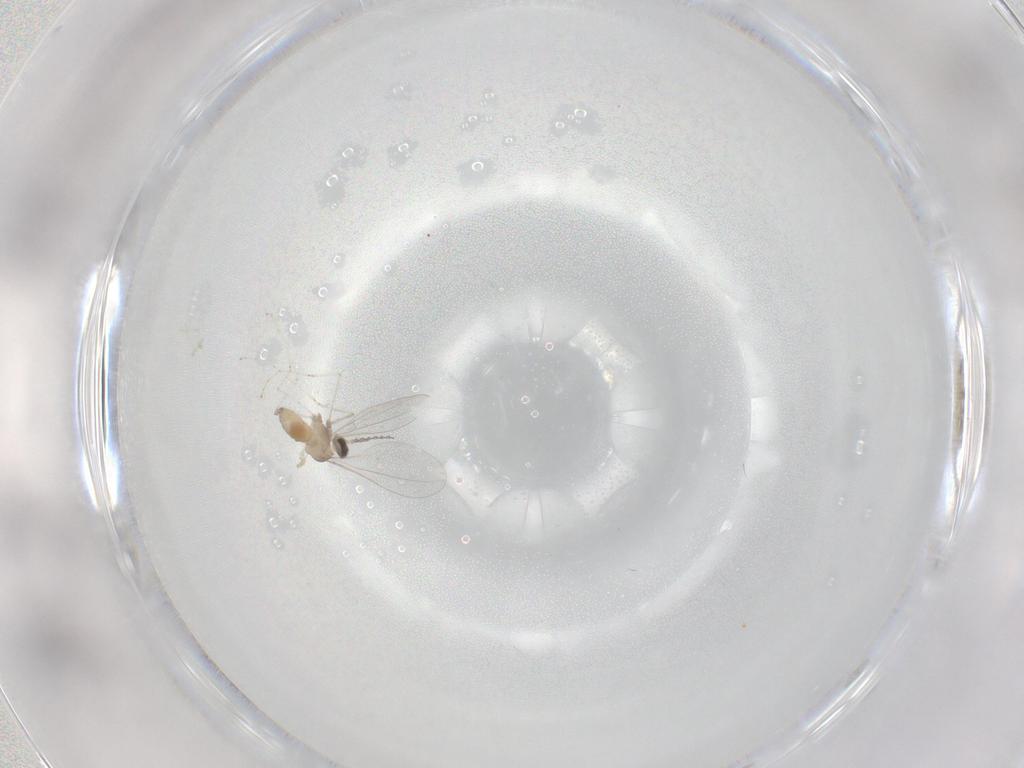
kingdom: Animalia
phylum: Arthropoda
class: Insecta
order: Diptera
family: Cecidomyiidae
